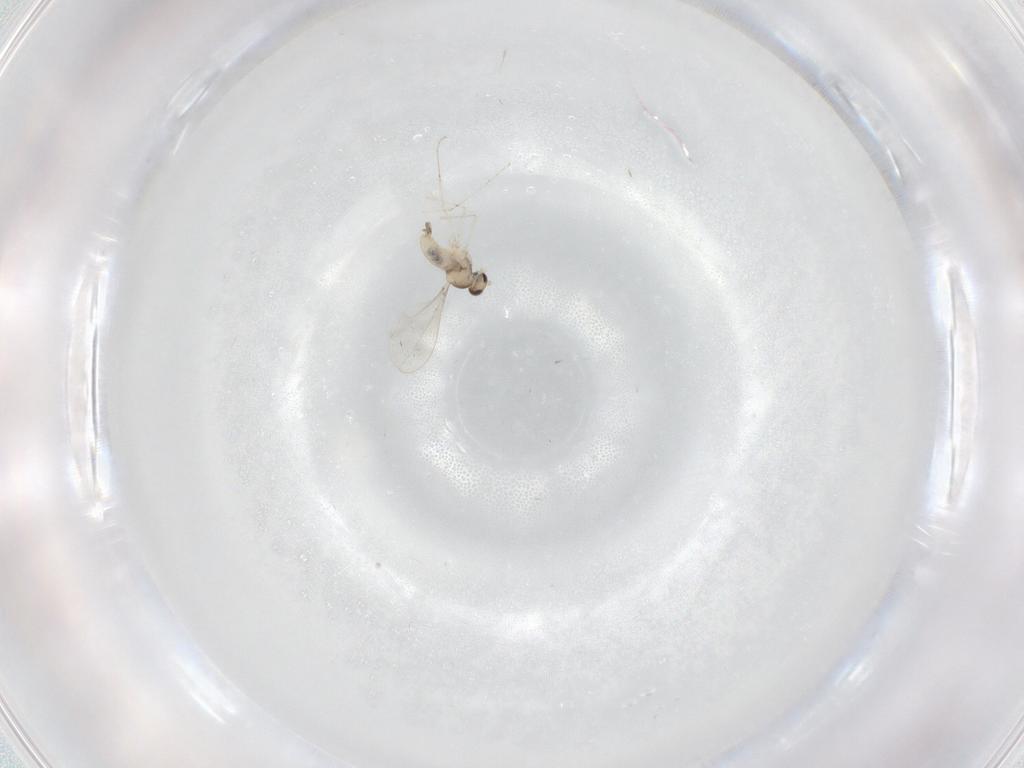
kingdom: Animalia
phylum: Arthropoda
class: Insecta
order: Diptera
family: Cecidomyiidae
